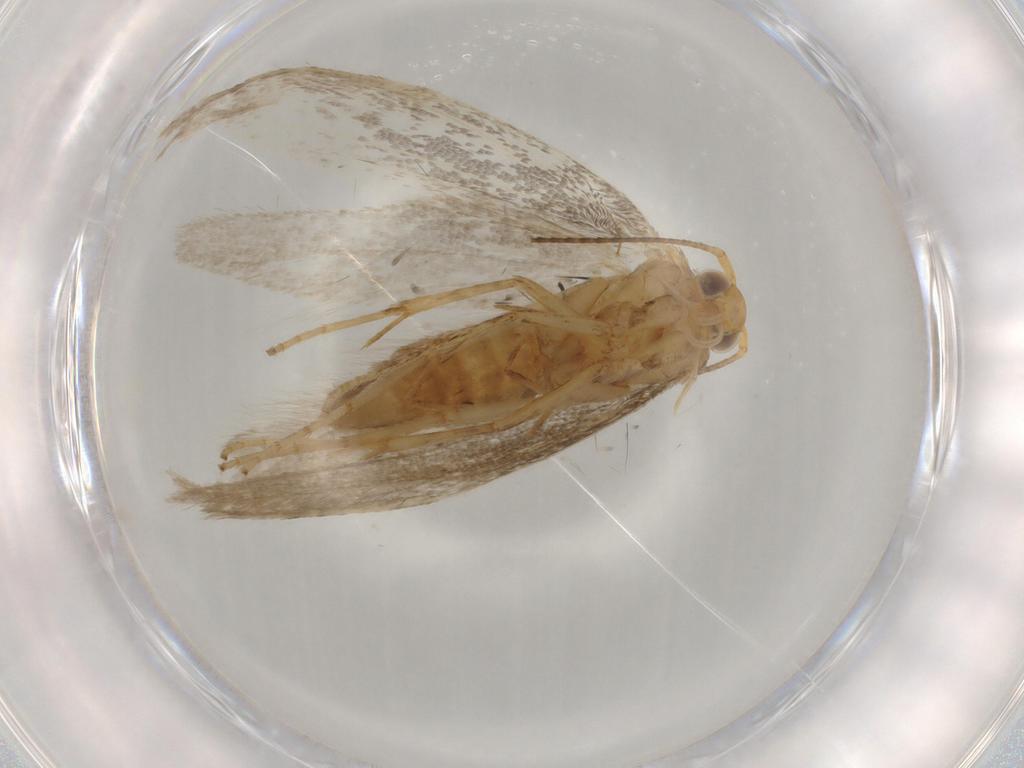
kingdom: Animalia
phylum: Arthropoda
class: Insecta
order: Lepidoptera
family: Argyresthiidae
